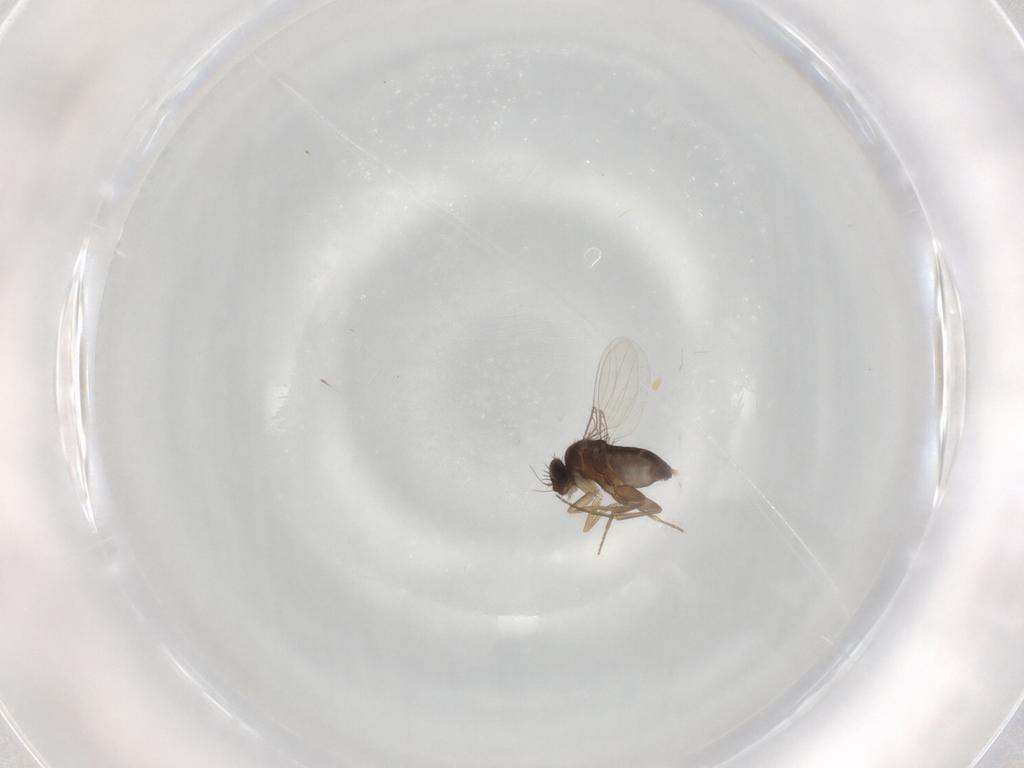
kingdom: Animalia
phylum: Arthropoda
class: Insecta
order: Diptera
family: Phoridae
